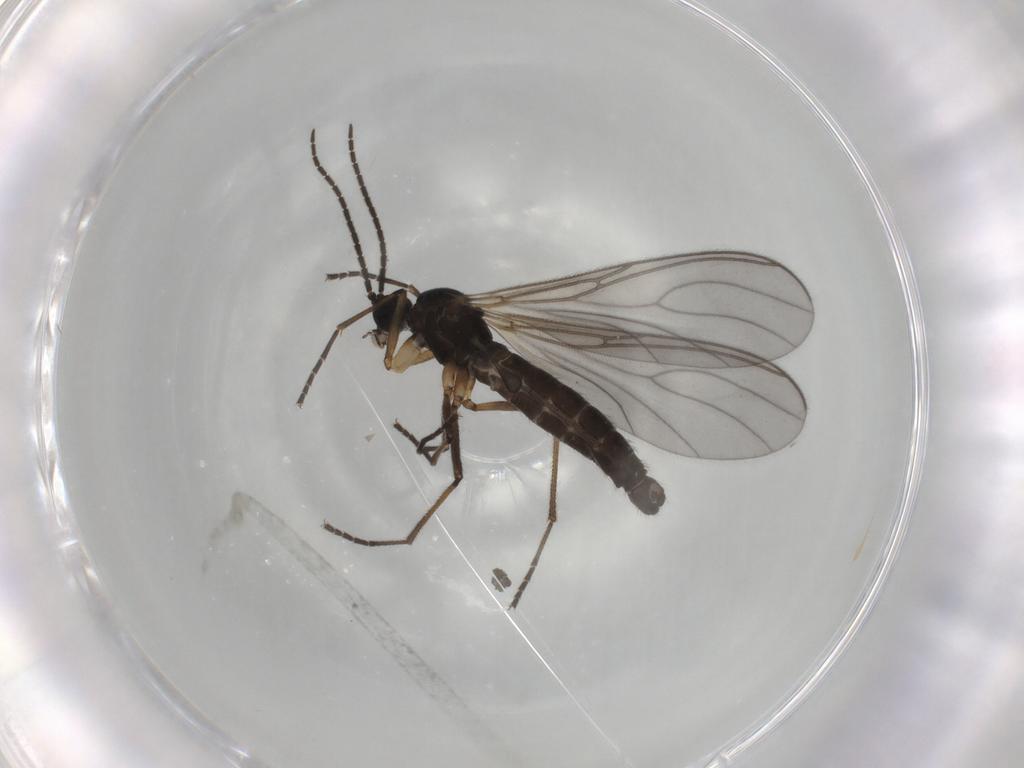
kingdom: Animalia
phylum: Arthropoda
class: Insecta
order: Diptera
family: Sciaridae
